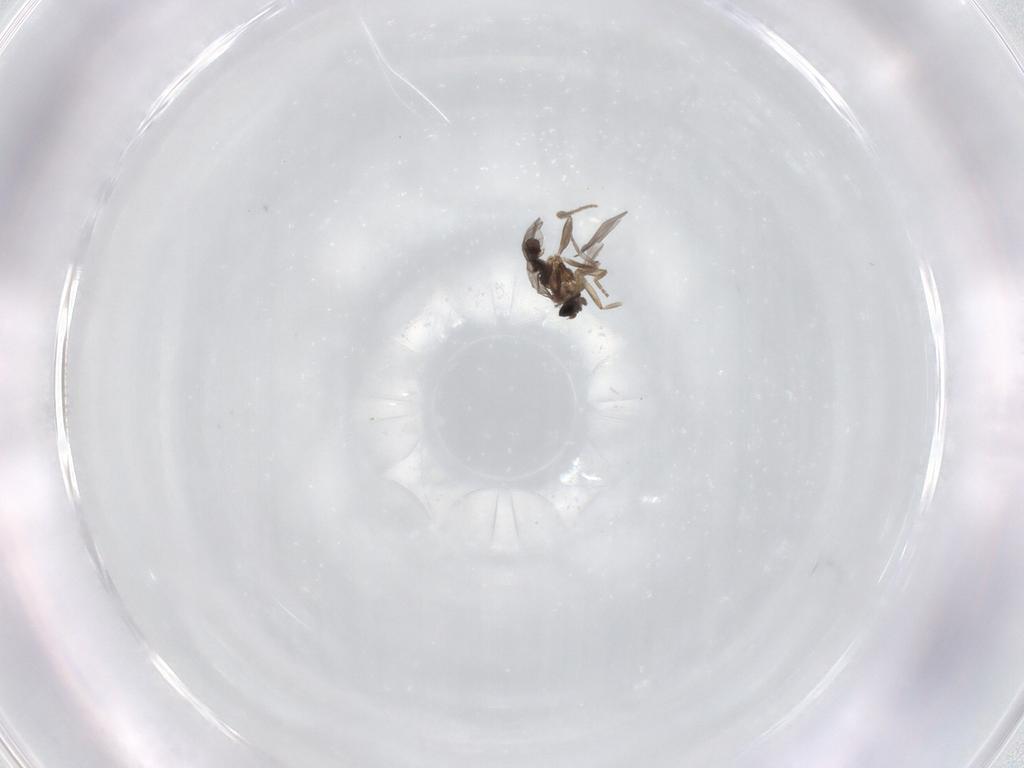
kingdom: Animalia
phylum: Arthropoda
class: Insecta
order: Diptera
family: Ceratopogonidae
